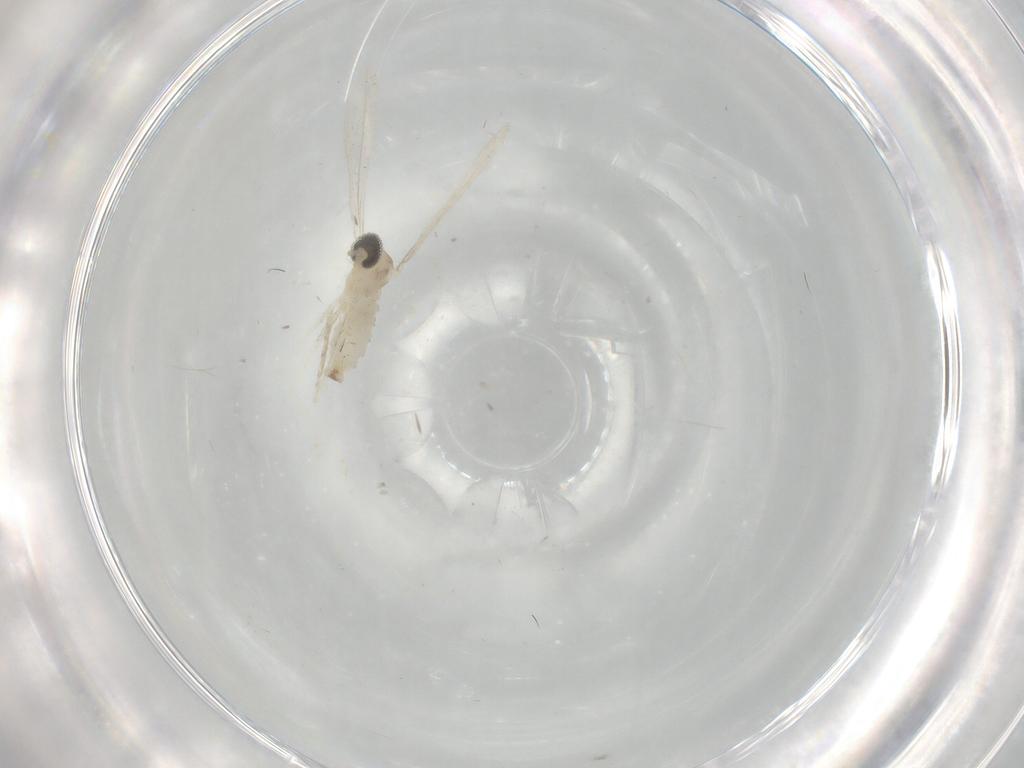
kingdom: Animalia
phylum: Arthropoda
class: Insecta
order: Diptera
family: Cecidomyiidae
